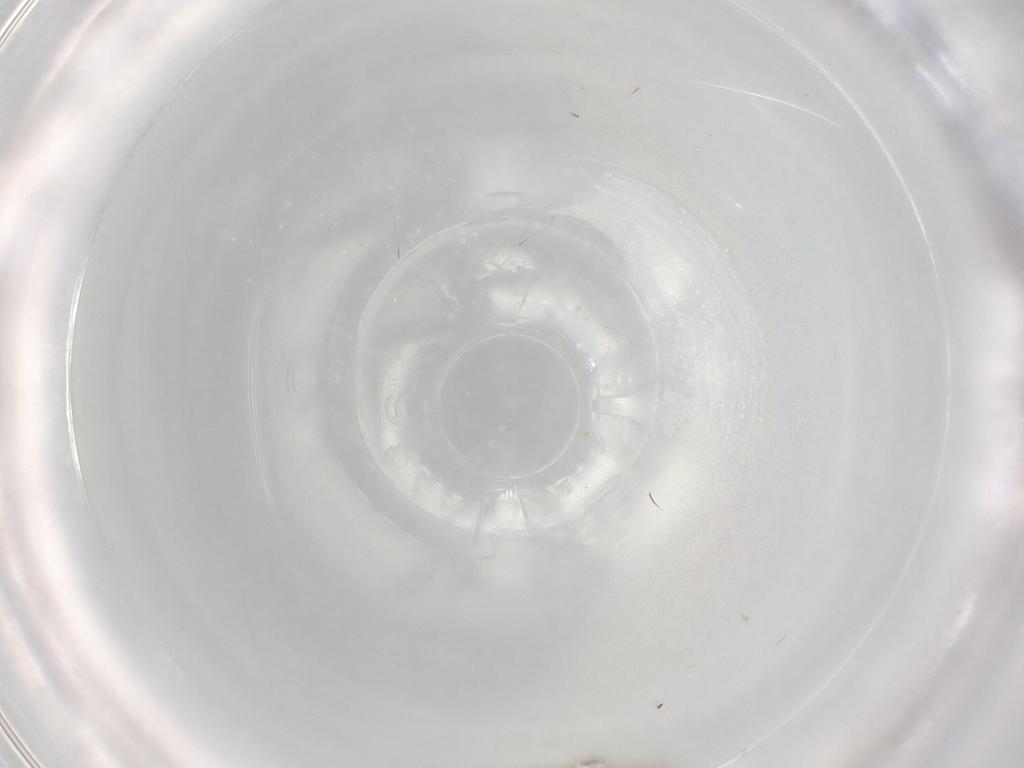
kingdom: Animalia
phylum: Arthropoda
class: Insecta
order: Diptera
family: Cecidomyiidae
